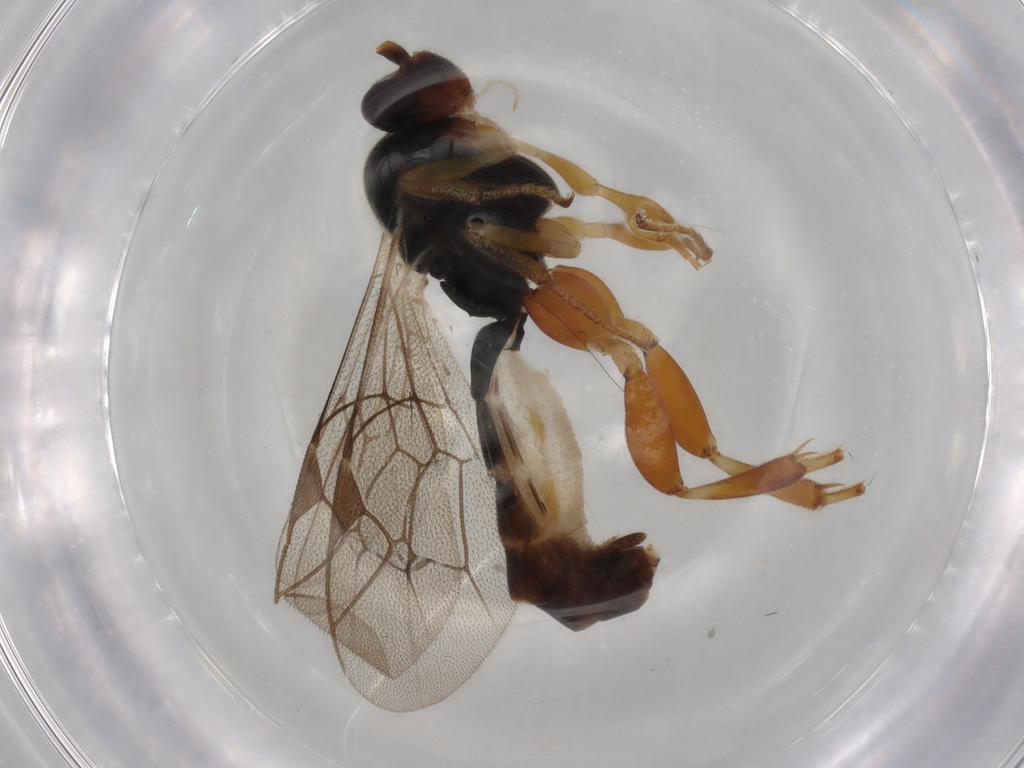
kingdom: Animalia
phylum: Arthropoda
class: Insecta
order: Hymenoptera
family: Ichneumonidae
